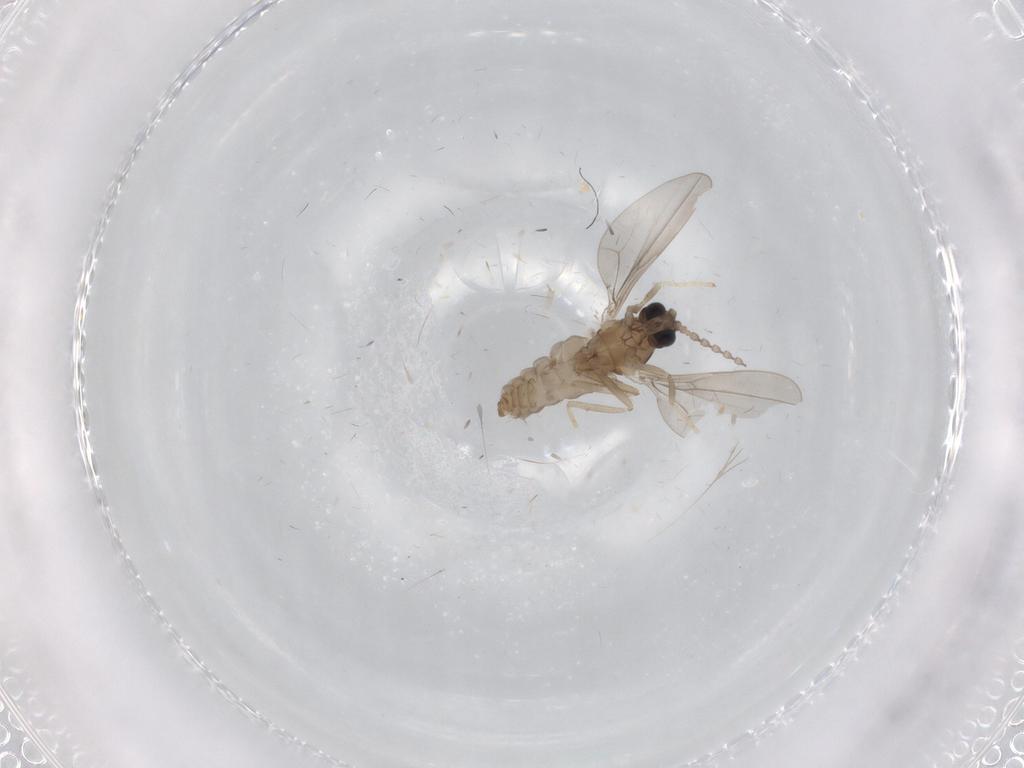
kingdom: Animalia
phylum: Arthropoda
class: Insecta
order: Diptera
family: Cecidomyiidae
